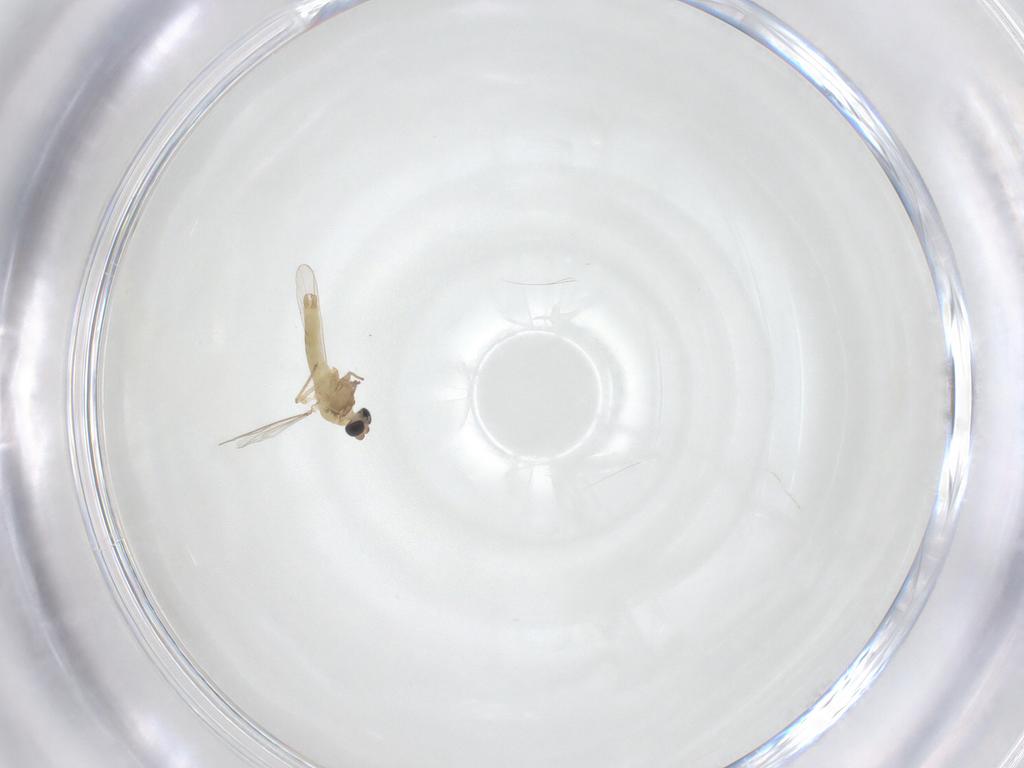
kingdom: Animalia
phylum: Arthropoda
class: Insecta
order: Diptera
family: Chironomidae
